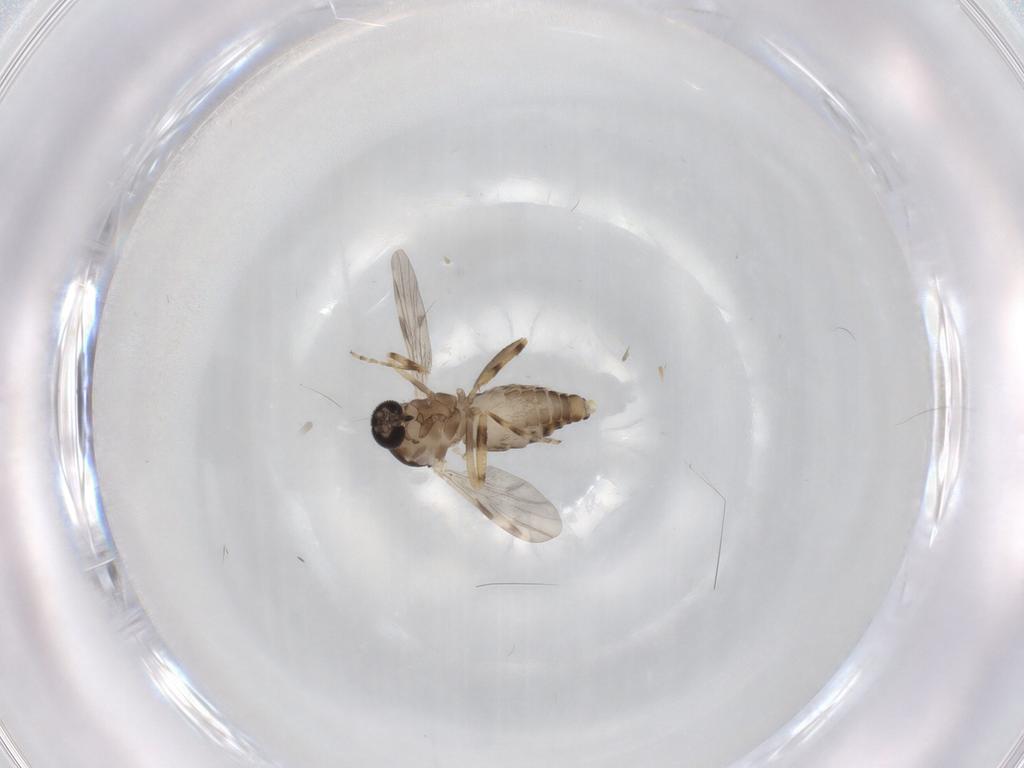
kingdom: Animalia
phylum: Arthropoda
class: Insecta
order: Diptera
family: Ceratopogonidae
